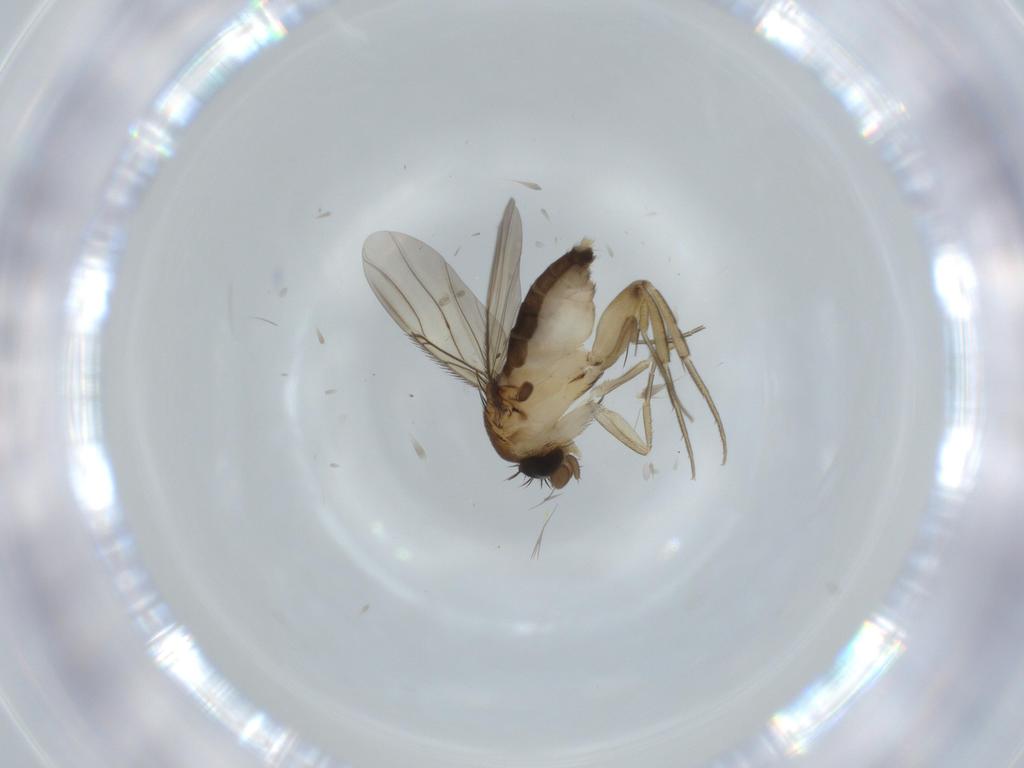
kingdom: Animalia
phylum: Arthropoda
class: Insecta
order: Diptera
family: Phoridae
